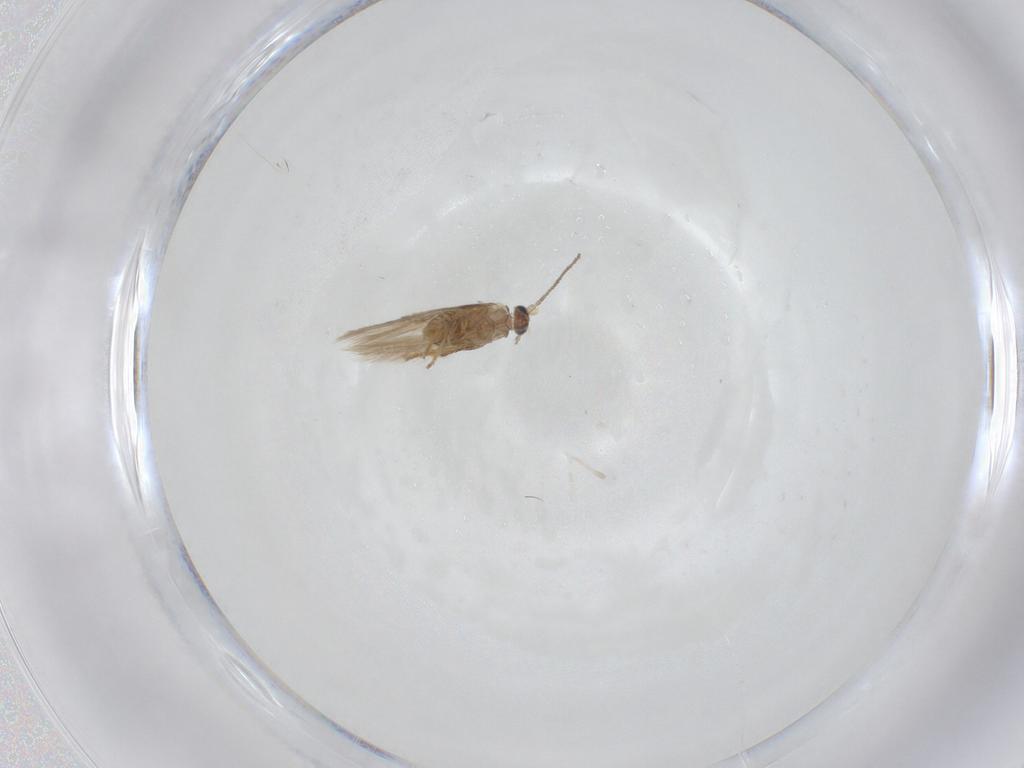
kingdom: Animalia
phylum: Arthropoda
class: Insecta
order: Lepidoptera
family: Nepticulidae
